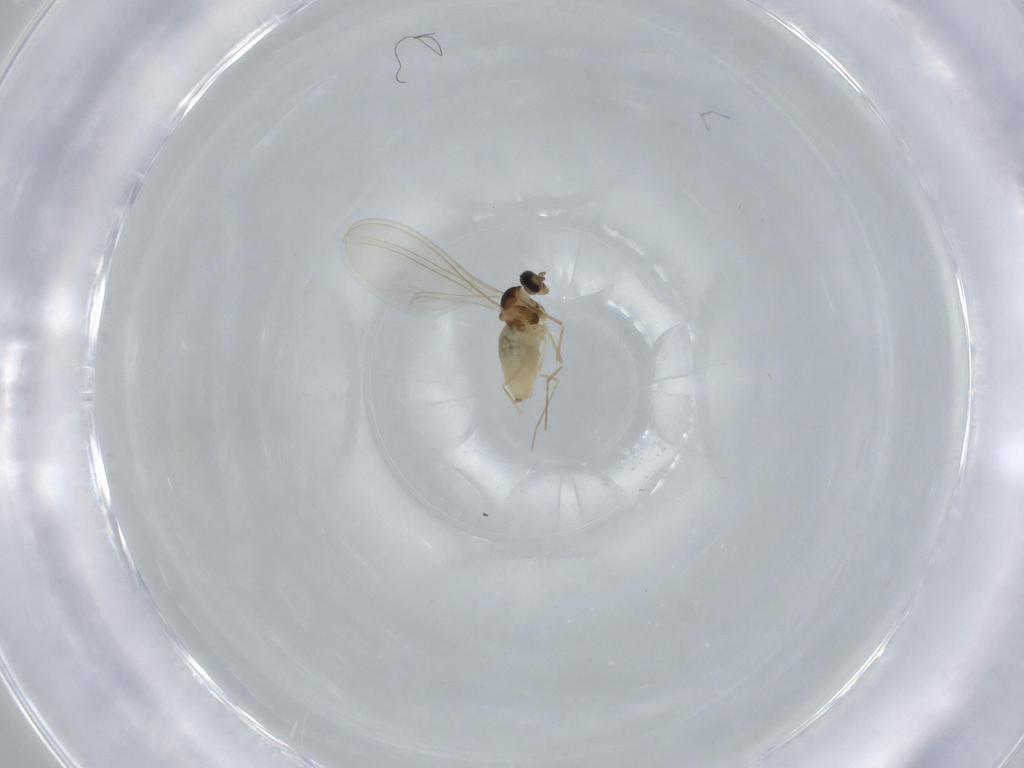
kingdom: Animalia
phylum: Arthropoda
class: Insecta
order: Diptera
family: Cecidomyiidae
